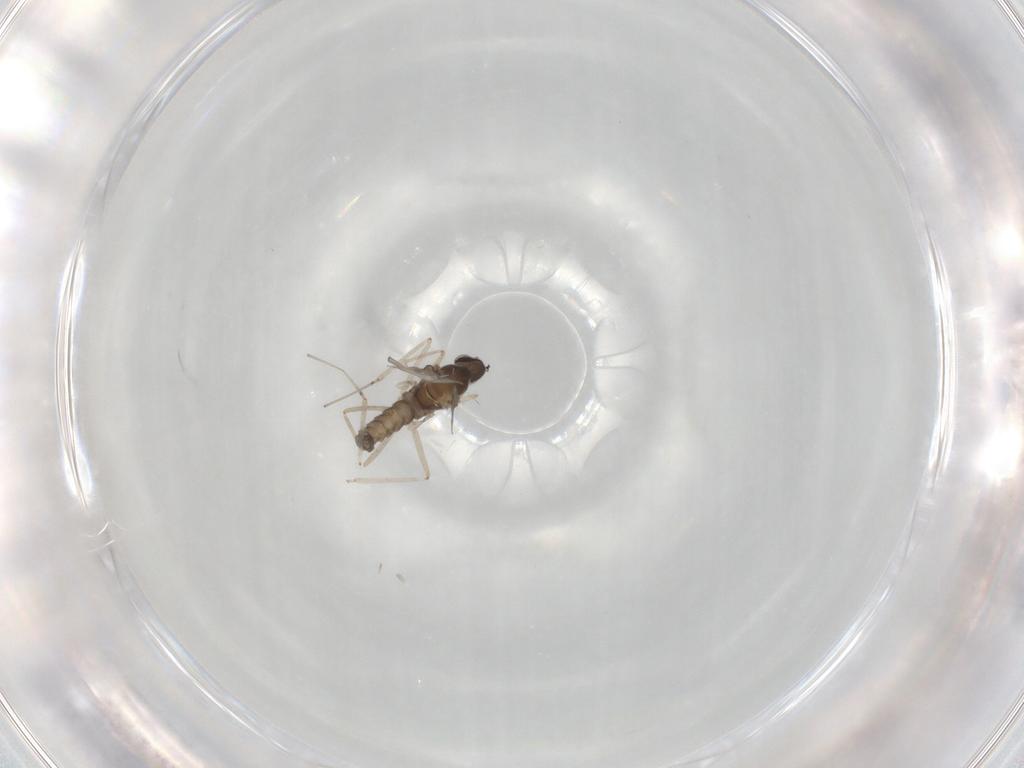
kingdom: Animalia
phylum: Arthropoda
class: Insecta
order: Diptera
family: Cecidomyiidae
